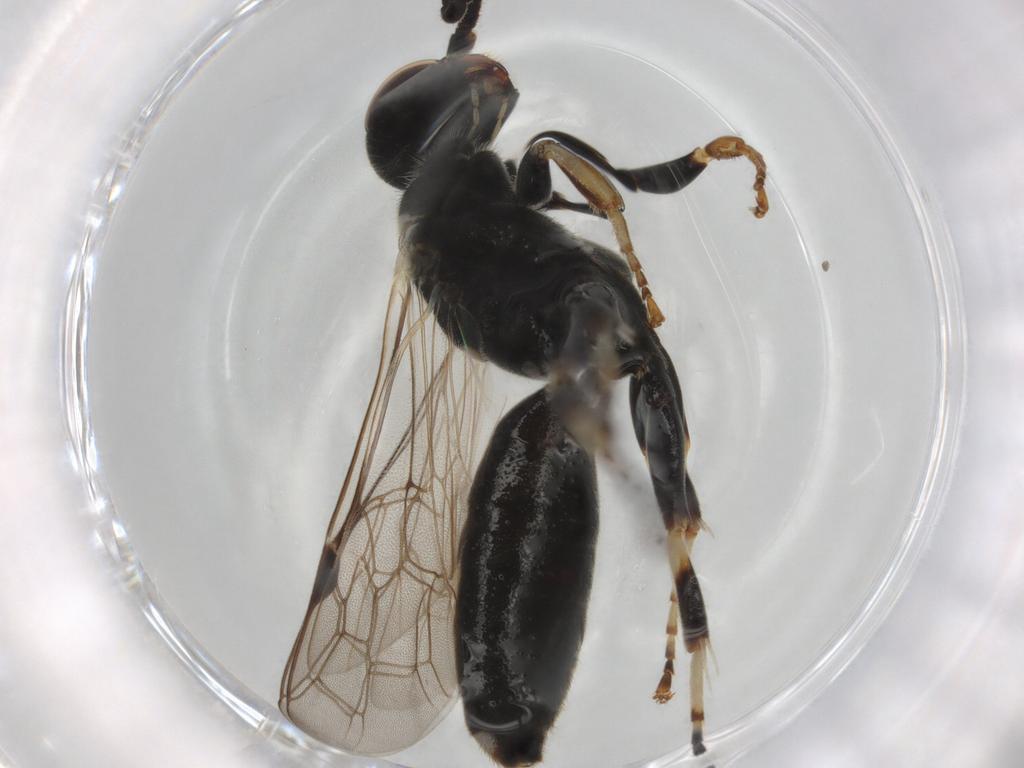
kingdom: Animalia
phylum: Arthropoda
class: Insecta
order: Hymenoptera
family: Thynnidae
